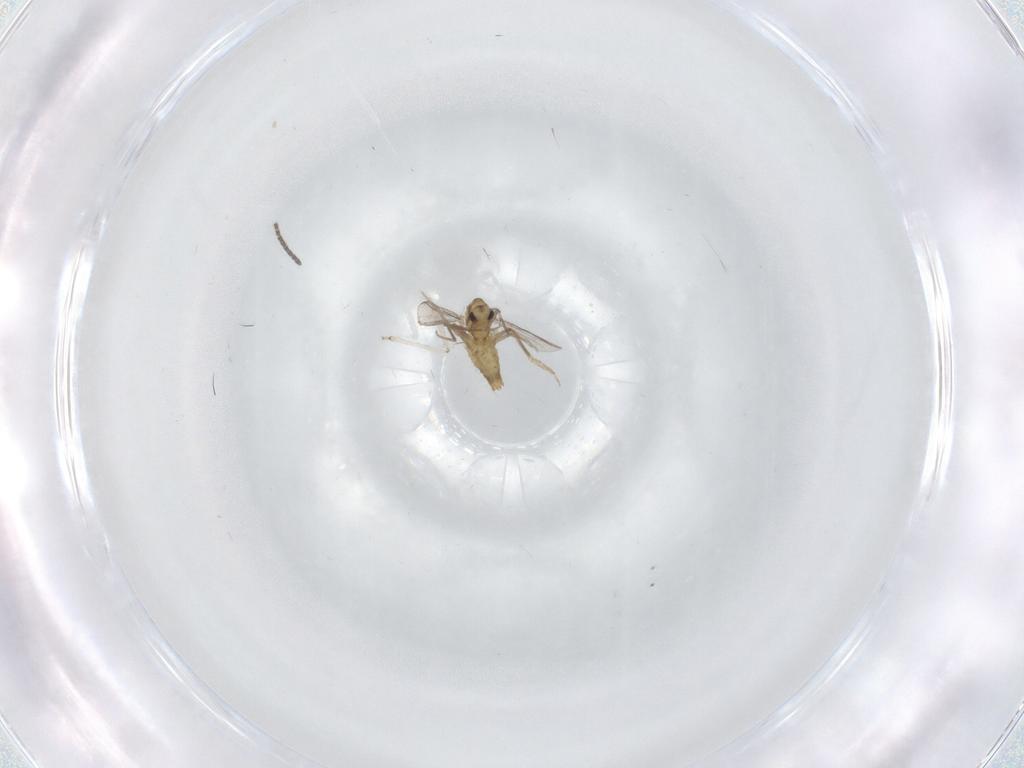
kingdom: Animalia
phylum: Arthropoda
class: Insecta
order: Diptera
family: Chironomidae
